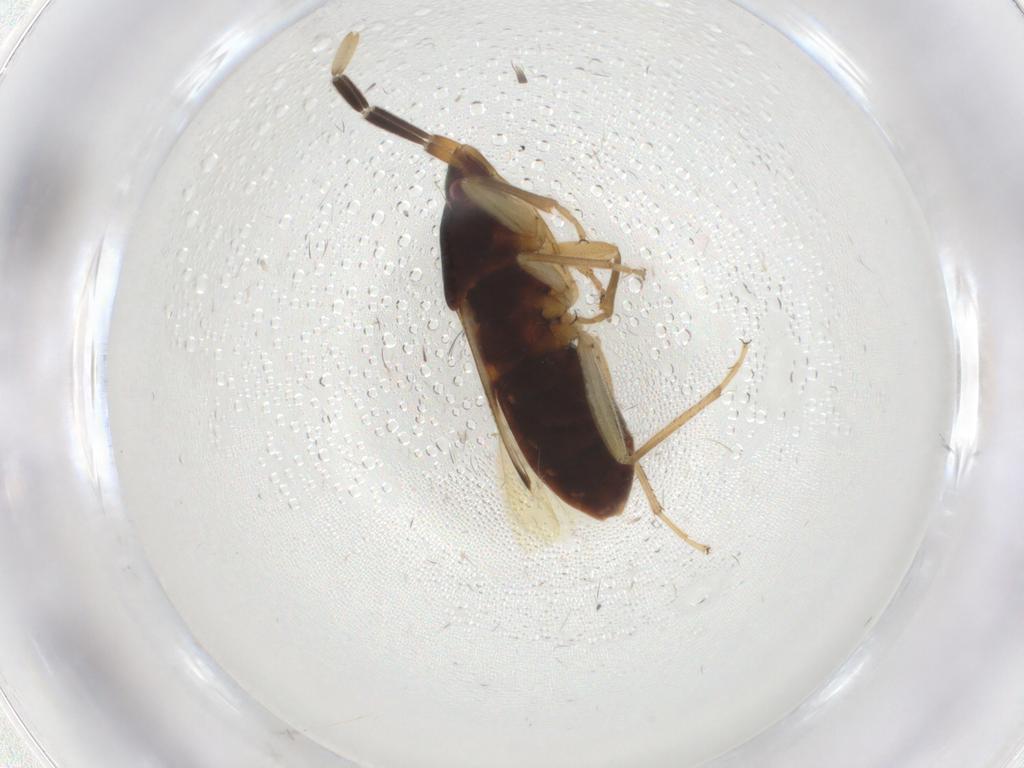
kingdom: Animalia
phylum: Arthropoda
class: Insecta
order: Hemiptera
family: Rhyparochromidae
